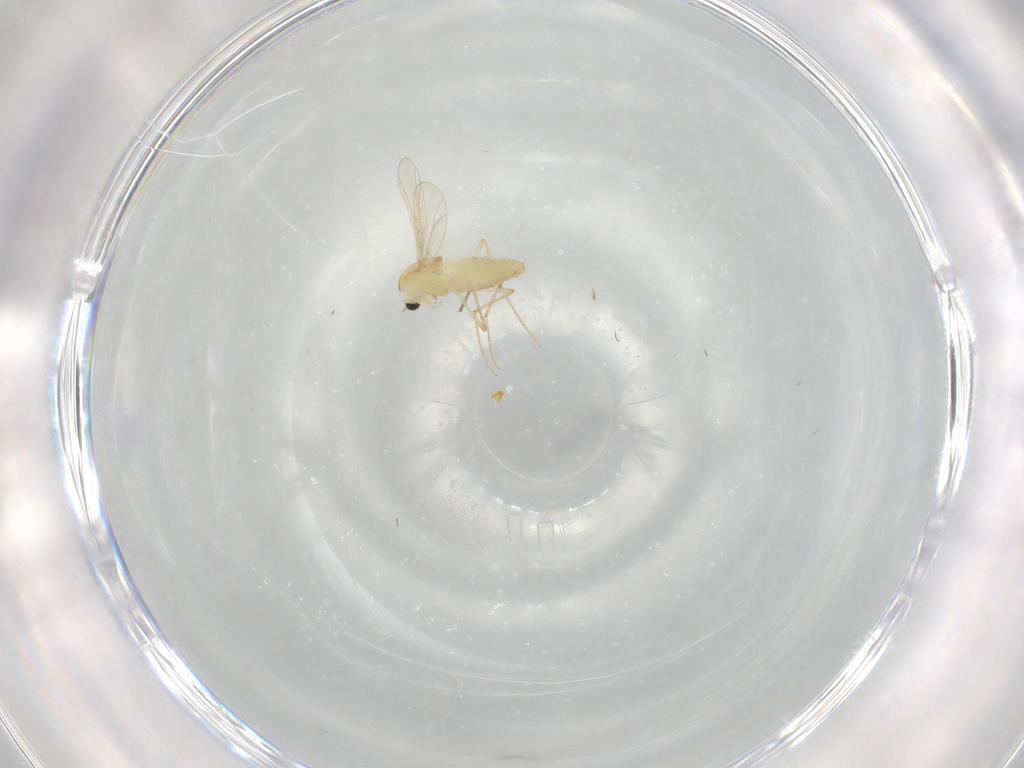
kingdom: Animalia
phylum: Arthropoda
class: Insecta
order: Diptera
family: Chironomidae
